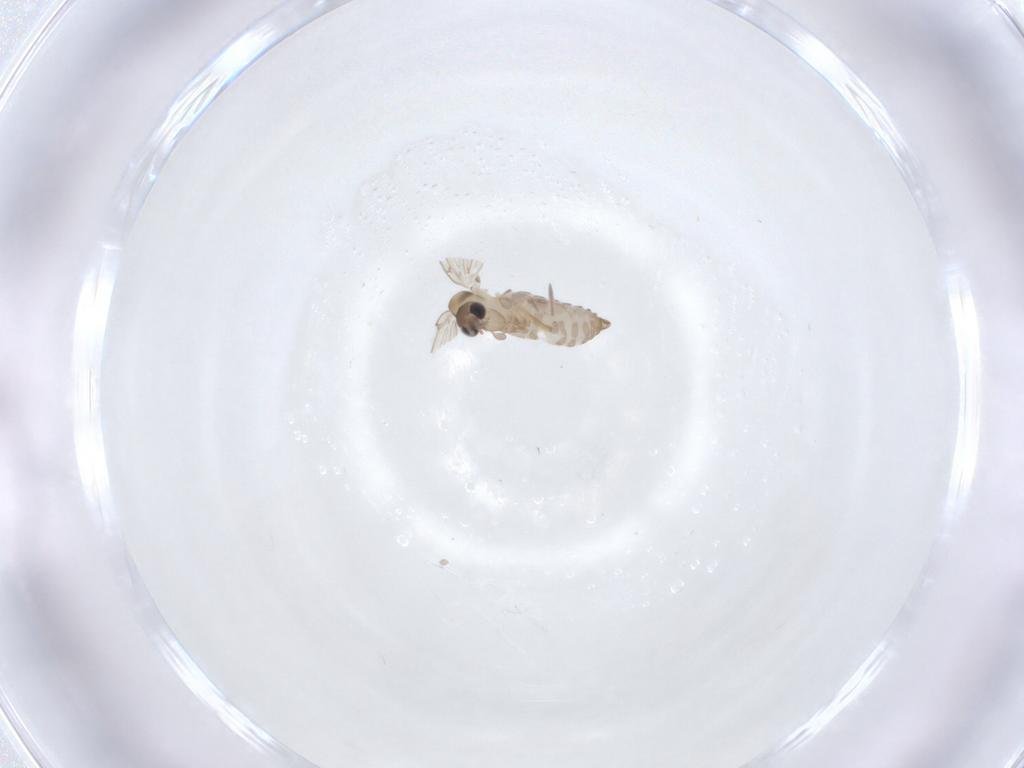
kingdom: Animalia
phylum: Arthropoda
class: Insecta
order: Diptera
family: Psychodidae
